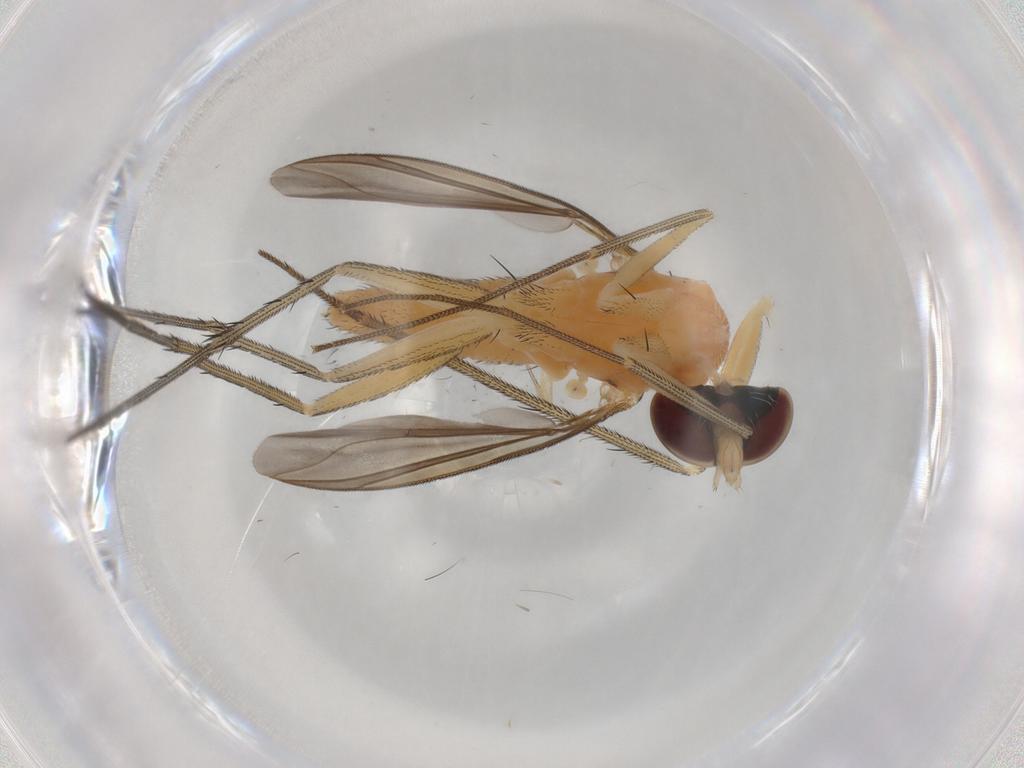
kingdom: Animalia
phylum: Arthropoda
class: Insecta
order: Diptera
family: Dolichopodidae
